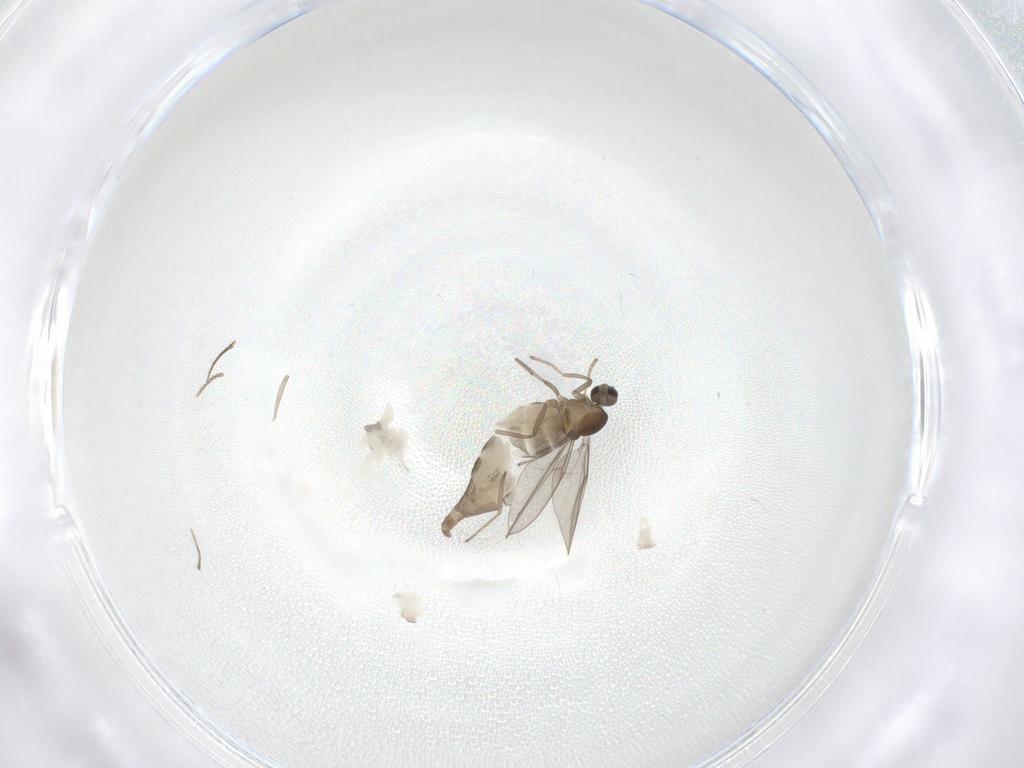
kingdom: Animalia
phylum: Arthropoda
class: Insecta
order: Diptera
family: Cecidomyiidae
